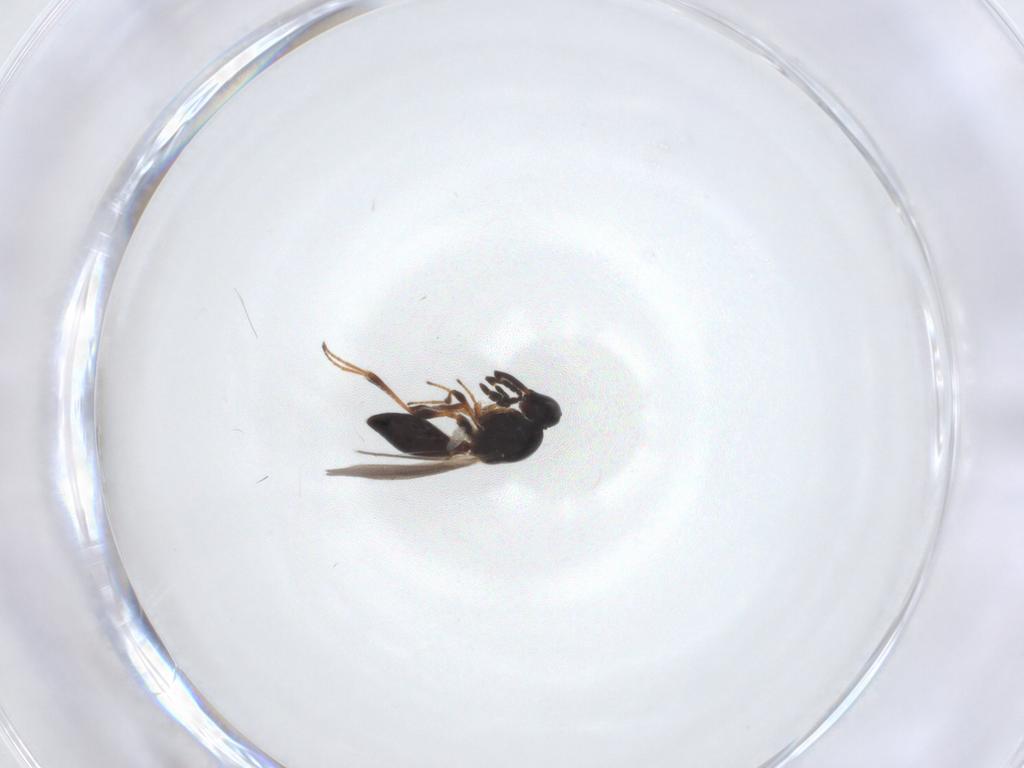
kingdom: Animalia
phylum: Arthropoda
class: Insecta
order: Hymenoptera
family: Platygastridae
